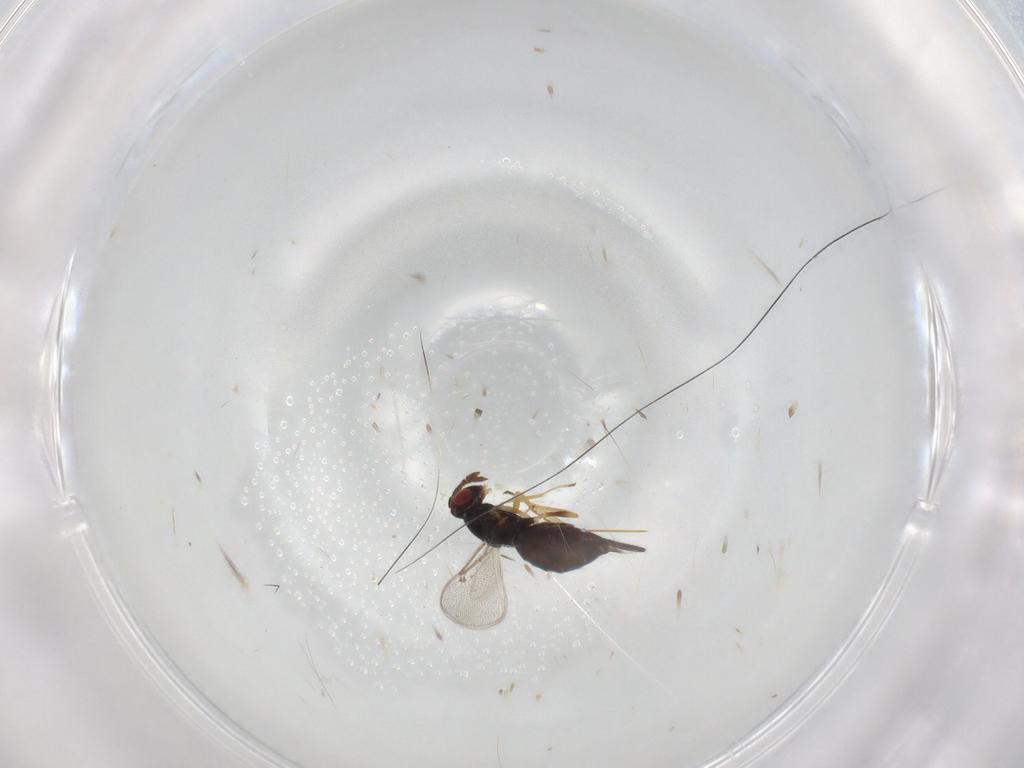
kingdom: Animalia
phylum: Arthropoda
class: Insecta
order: Hymenoptera
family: Eulophidae
